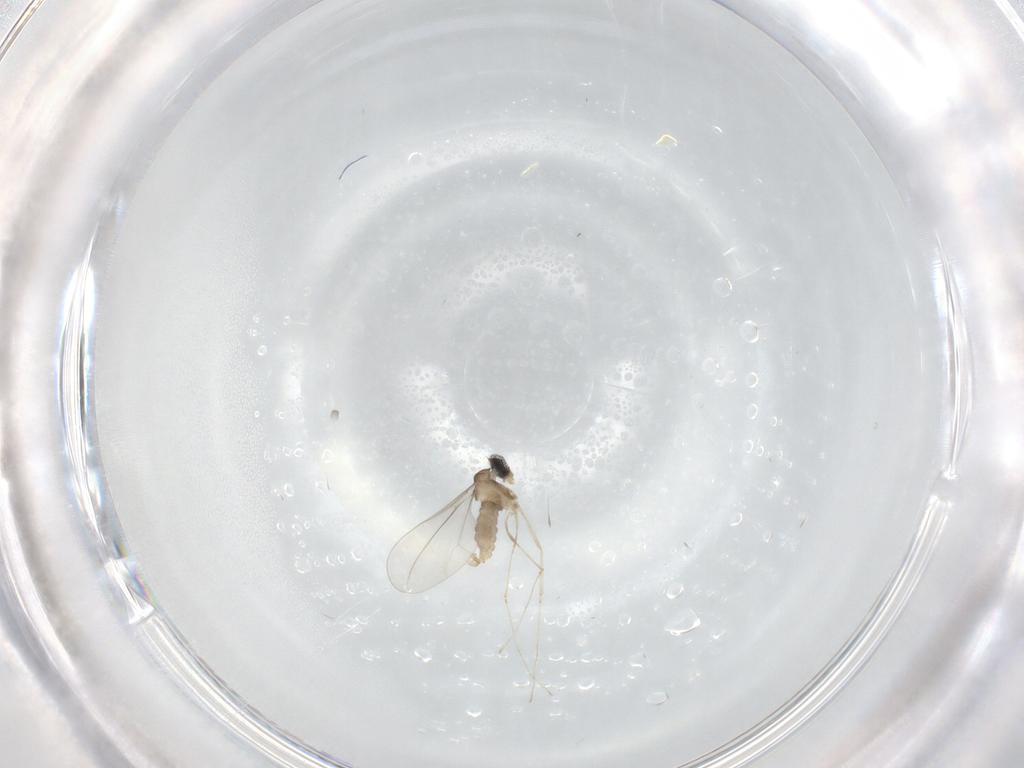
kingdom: Animalia
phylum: Arthropoda
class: Insecta
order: Diptera
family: Cecidomyiidae
